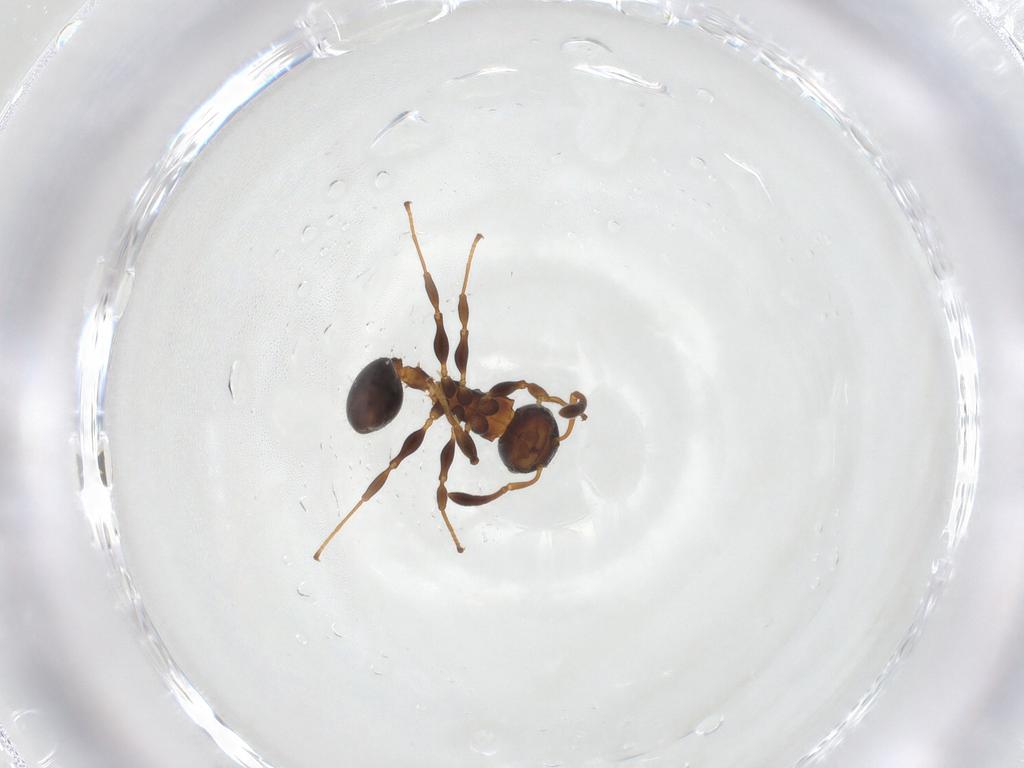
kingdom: Animalia
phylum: Arthropoda
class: Insecta
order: Hymenoptera
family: Formicidae
